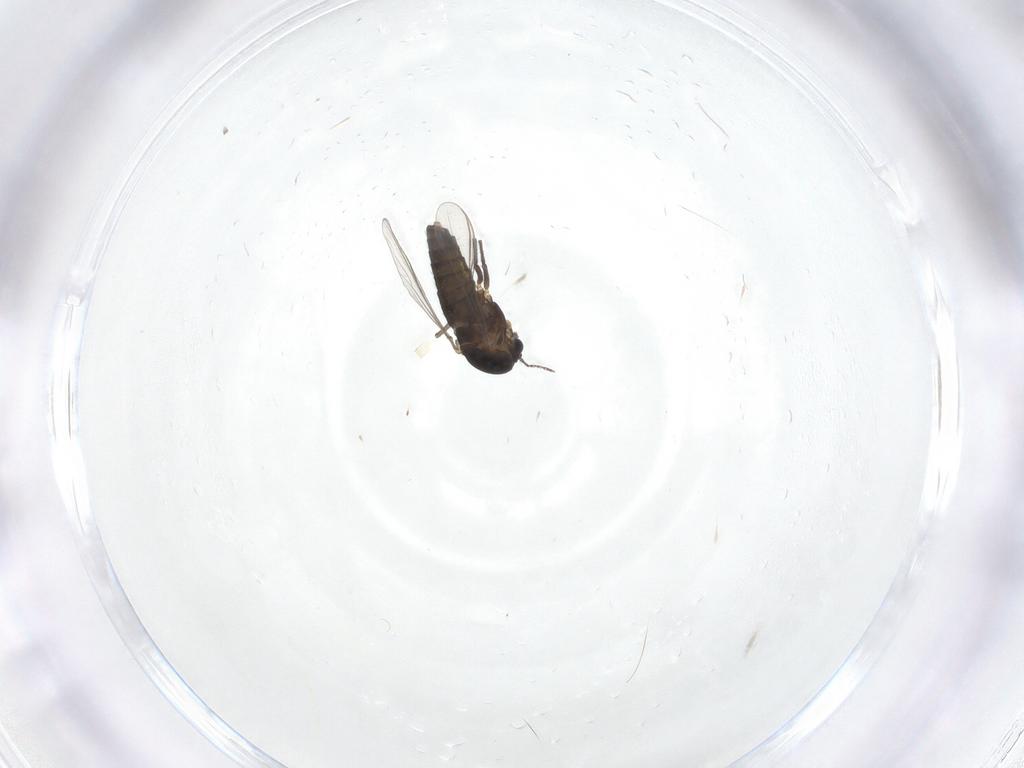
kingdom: Animalia
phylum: Arthropoda
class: Insecta
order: Diptera
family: Chironomidae
